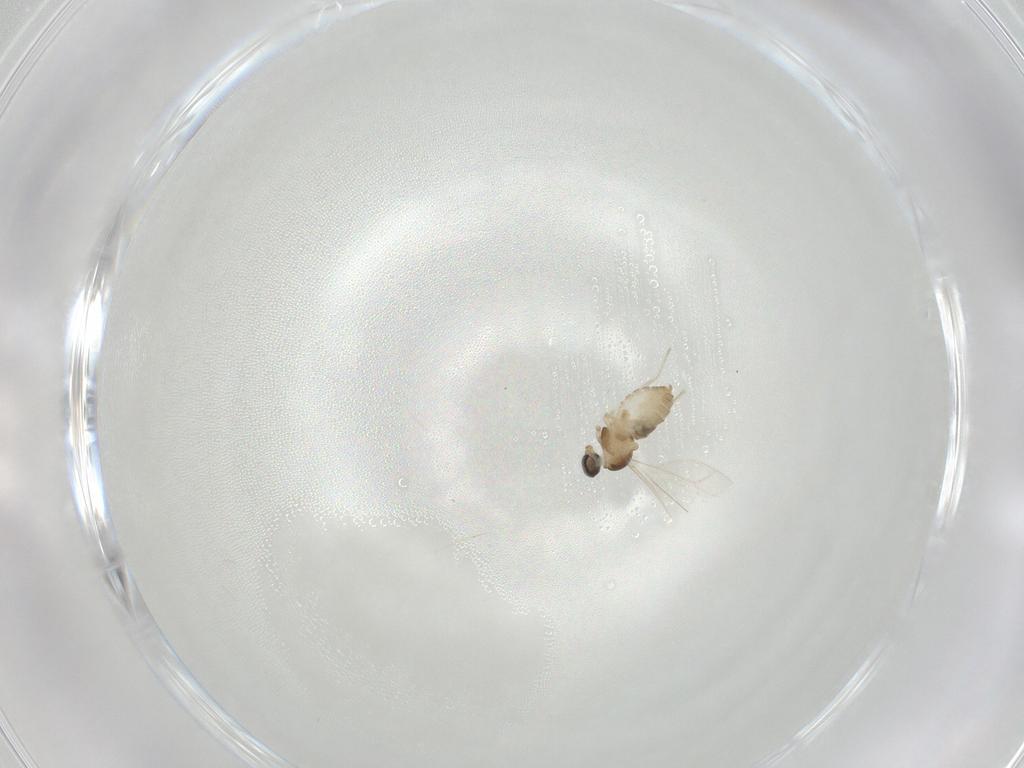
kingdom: Animalia
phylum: Arthropoda
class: Insecta
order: Diptera
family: Cecidomyiidae
